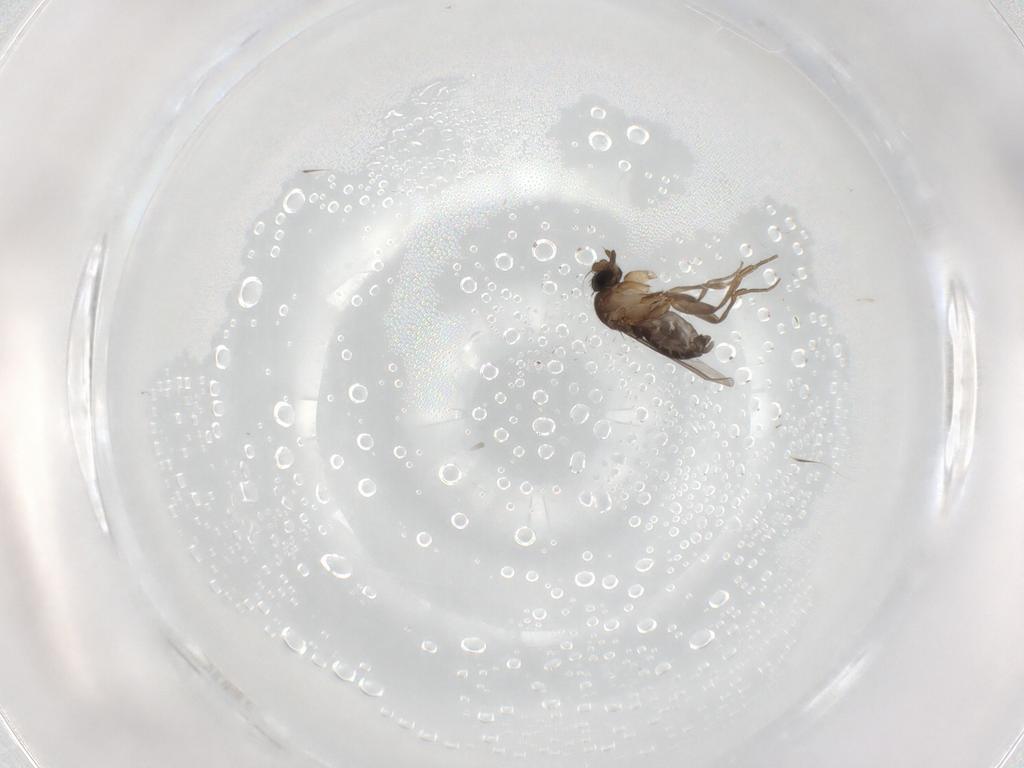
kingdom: Animalia
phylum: Arthropoda
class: Insecta
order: Diptera
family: Phoridae
